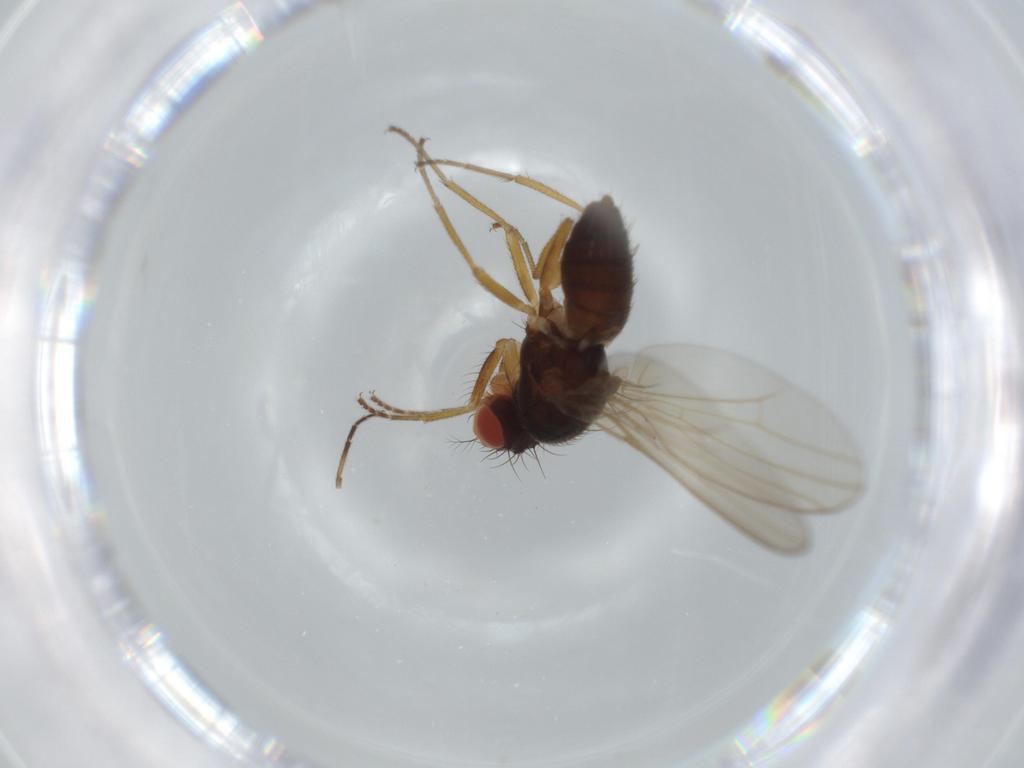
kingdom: Animalia
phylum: Arthropoda
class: Insecta
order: Diptera
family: Drosophilidae
